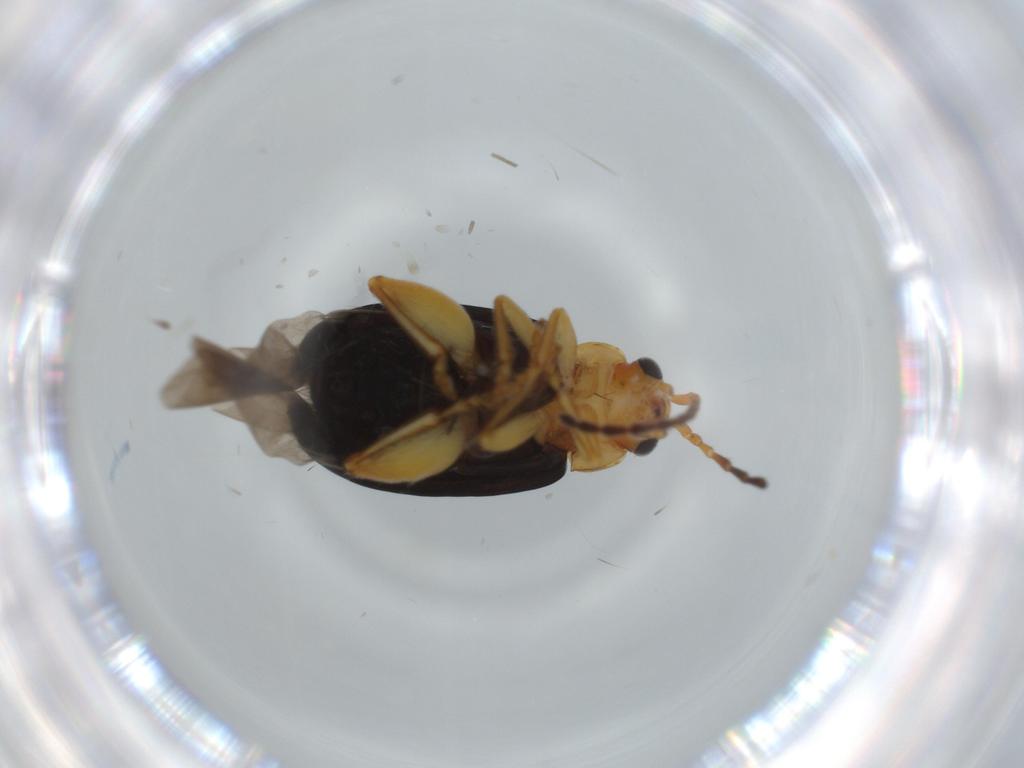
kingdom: Animalia
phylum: Arthropoda
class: Insecta
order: Coleoptera
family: Chrysomelidae
